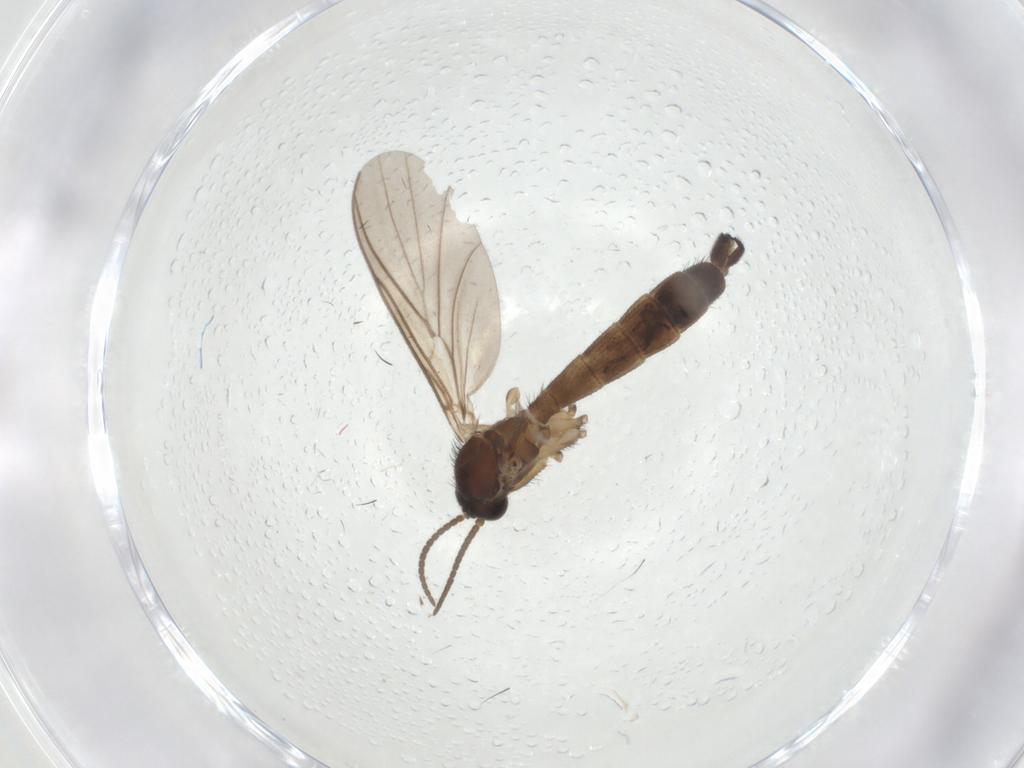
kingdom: Animalia
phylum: Arthropoda
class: Insecta
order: Diptera
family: Keroplatidae
